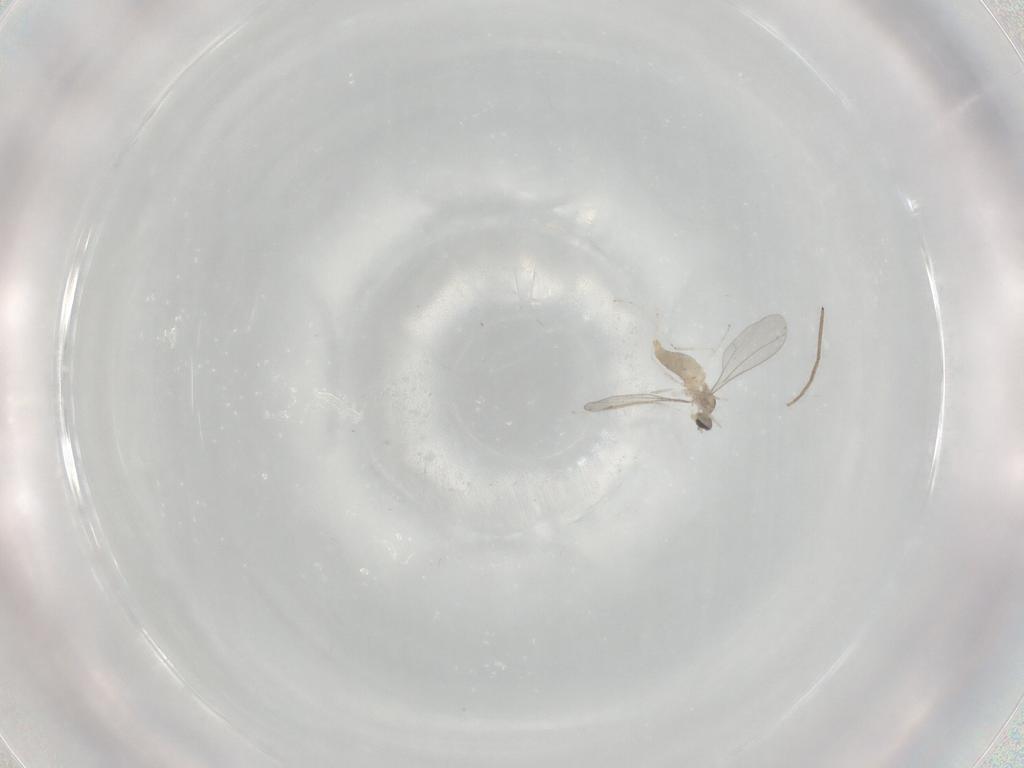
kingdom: Animalia
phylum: Arthropoda
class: Insecta
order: Diptera
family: Chironomidae
